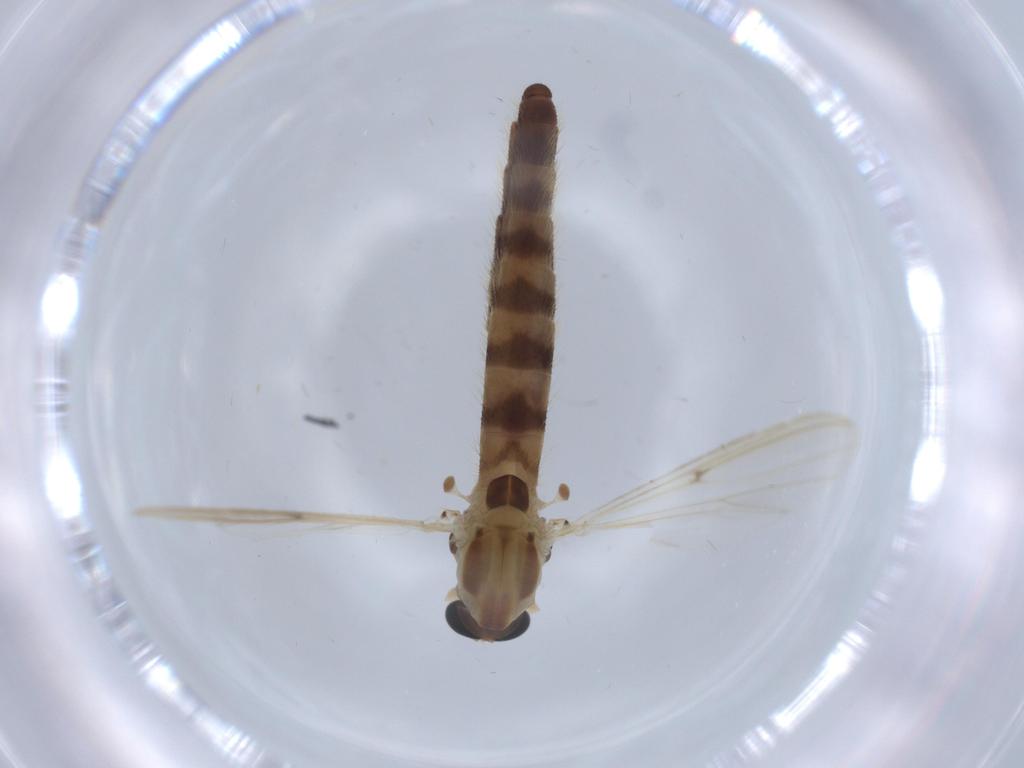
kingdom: Animalia
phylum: Arthropoda
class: Insecta
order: Diptera
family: Chironomidae
